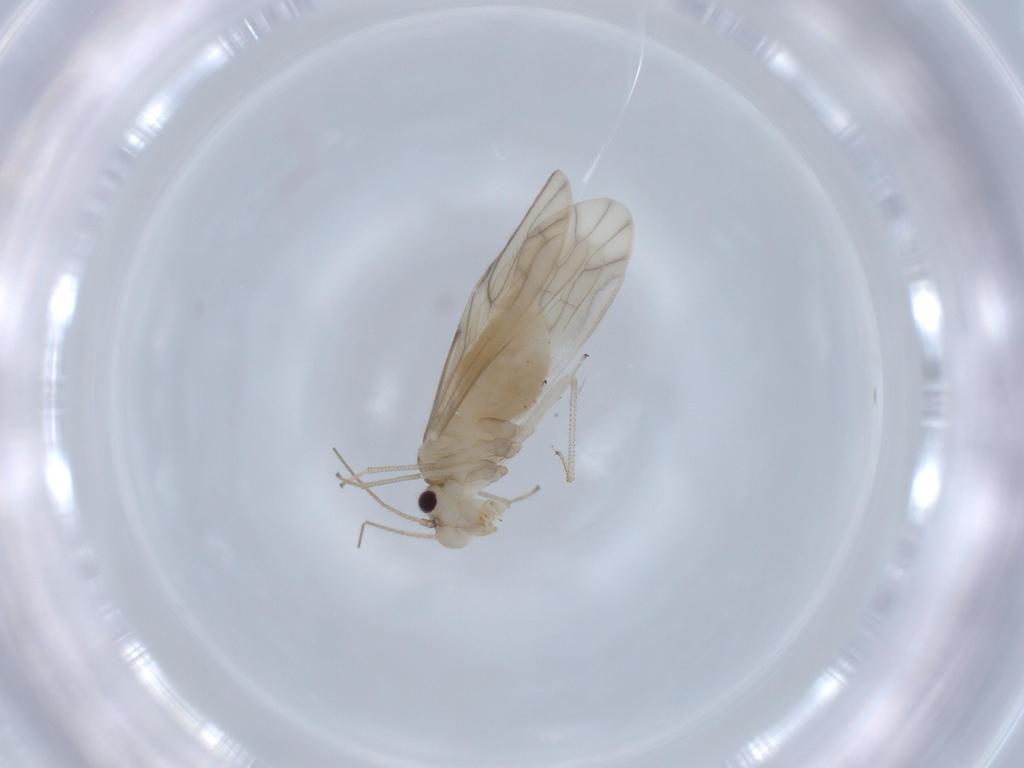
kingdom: Animalia
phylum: Arthropoda
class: Insecta
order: Psocodea
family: Caeciliusidae
